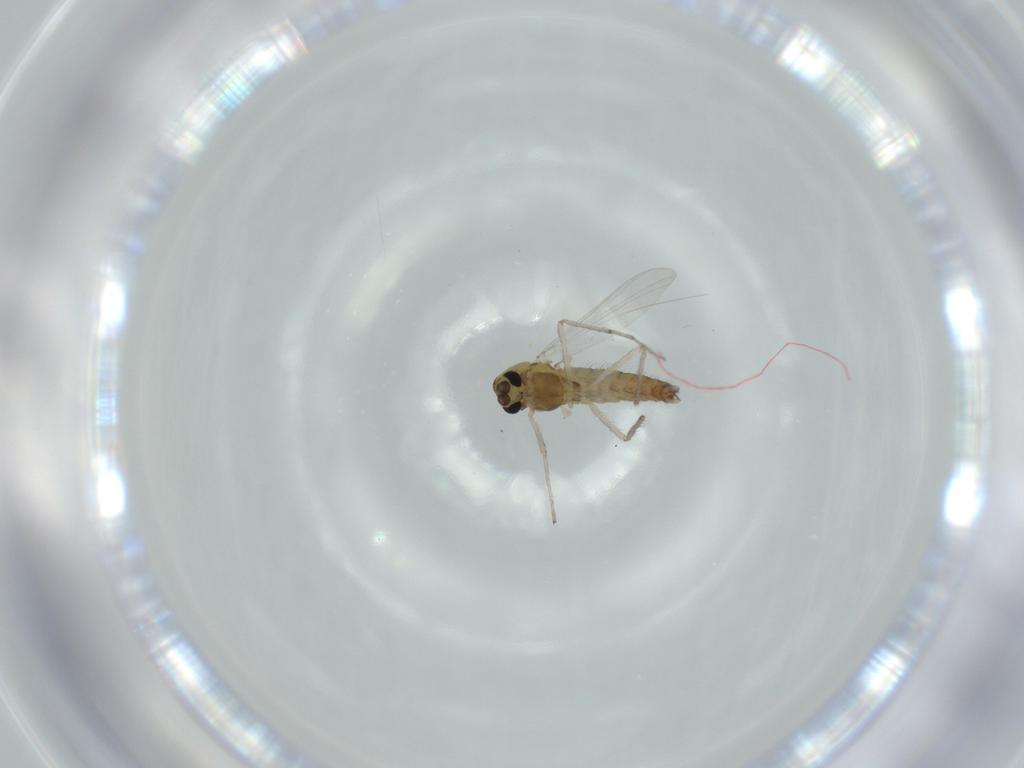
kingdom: Animalia
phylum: Arthropoda
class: Insecta
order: Diptera
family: Chironomidae
